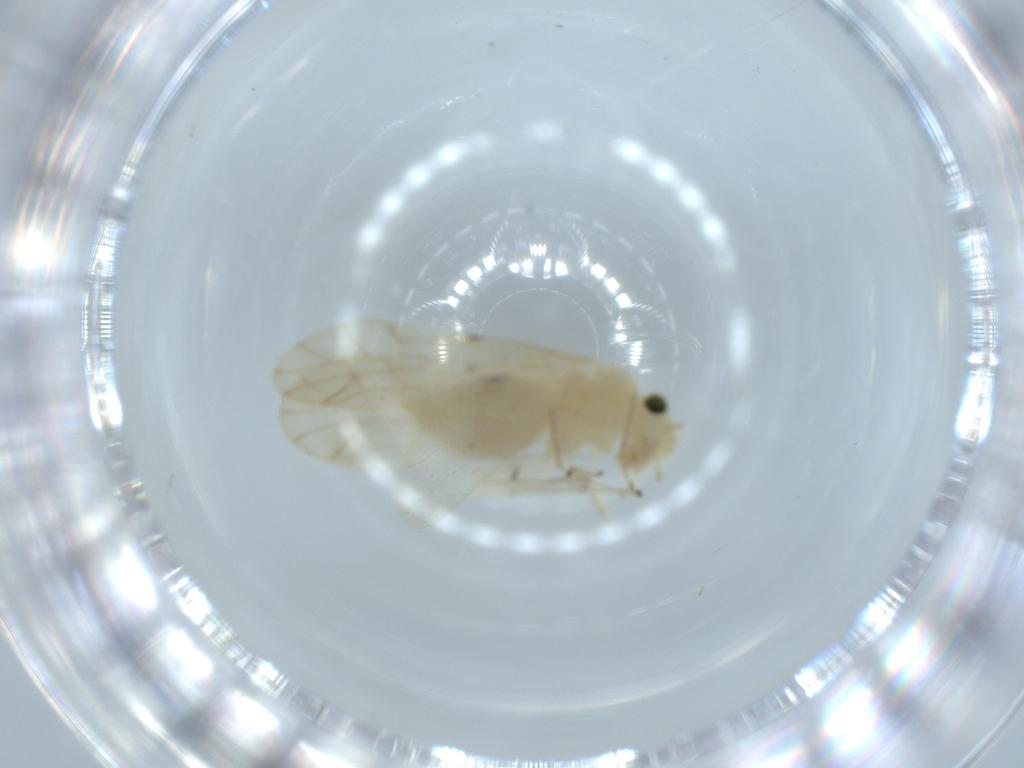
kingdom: Animalia
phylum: Arthropoda
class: Insecta
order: Psocodea
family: Caeciliusidae
